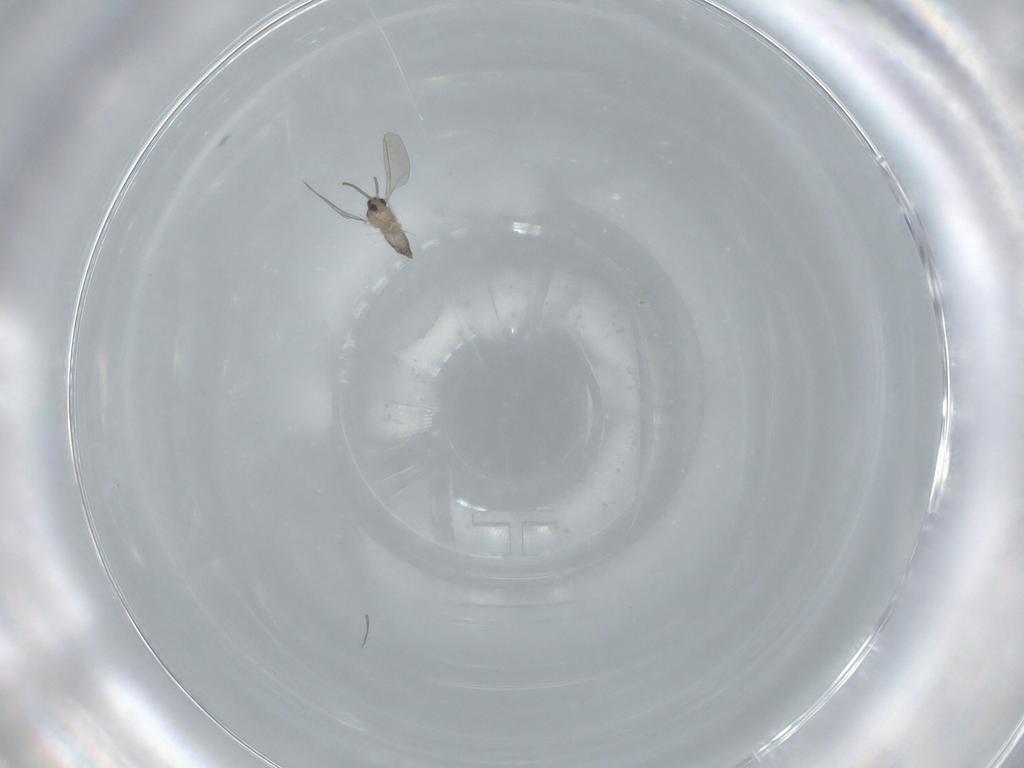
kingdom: Animalia
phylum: Arthropoda
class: Insecta
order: Diptera
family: Cecidomyiidae
